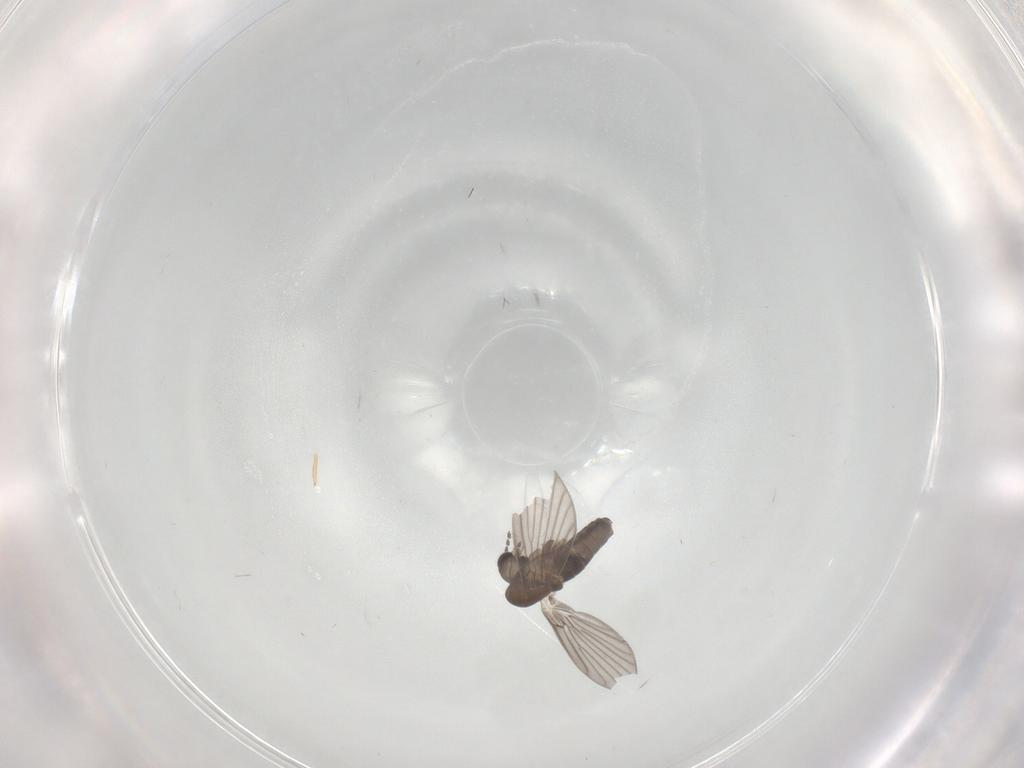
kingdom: Animalia
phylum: Arthropoda
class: Insecta
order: Diptera
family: Psychodidae
